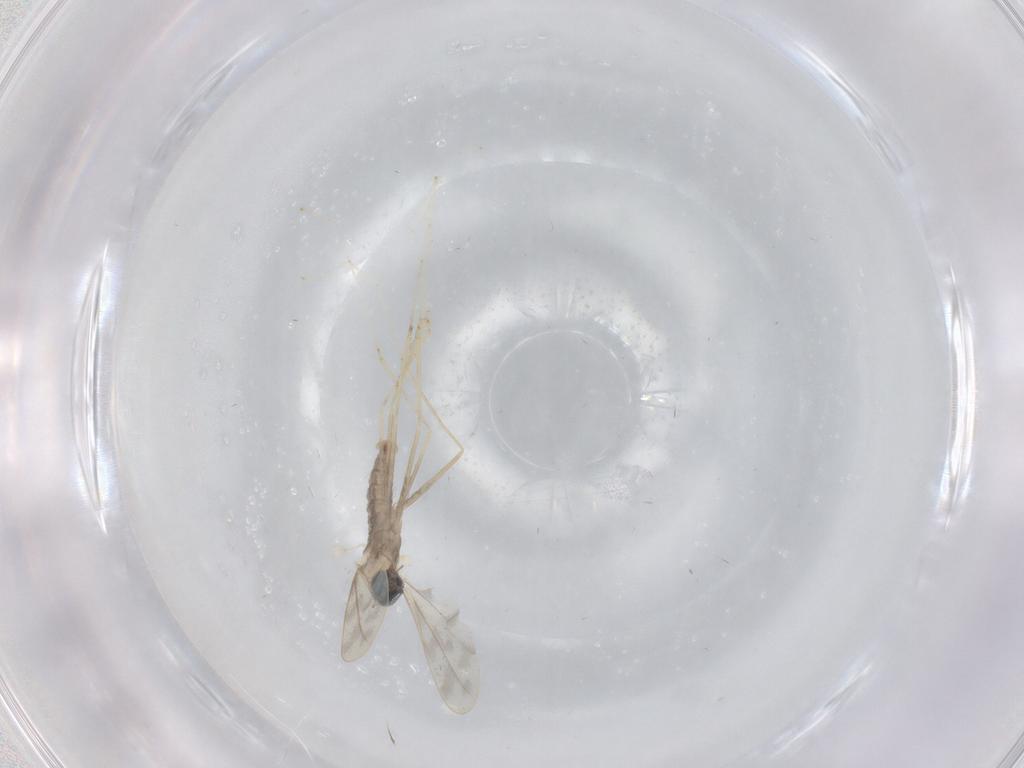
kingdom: Animalia
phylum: Arthropoda
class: Insecta
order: Diptera
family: Cecidomyiidae
